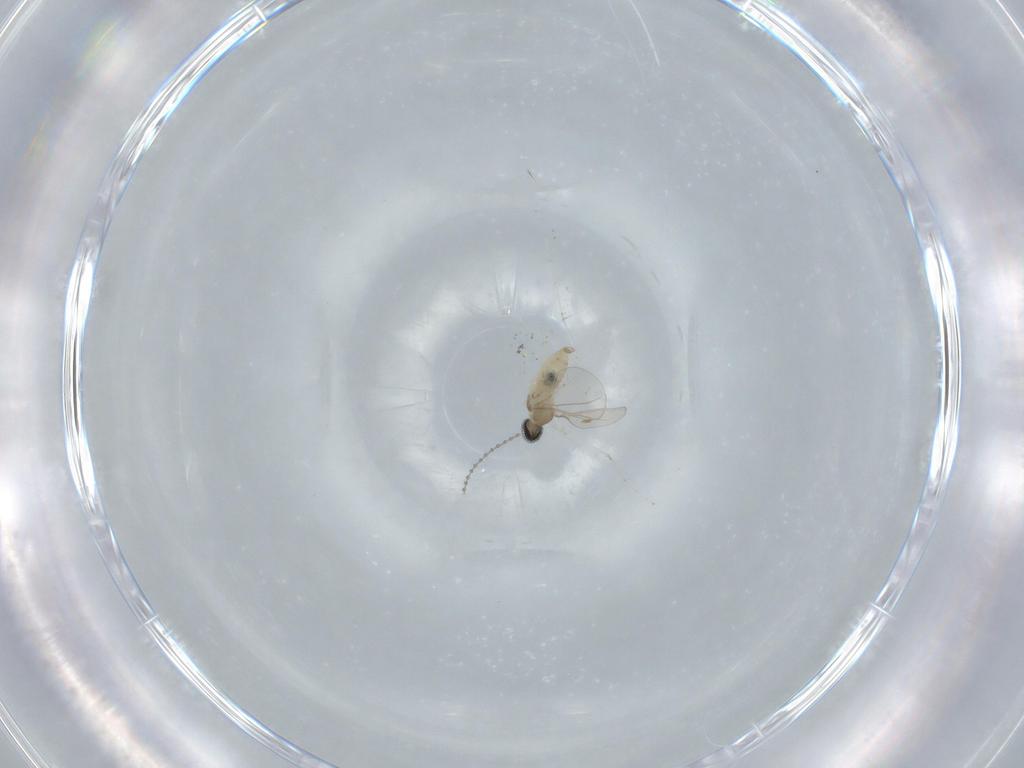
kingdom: Animalia
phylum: Arthropoda
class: Insecta
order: Diptera
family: Cecidomyiidae
